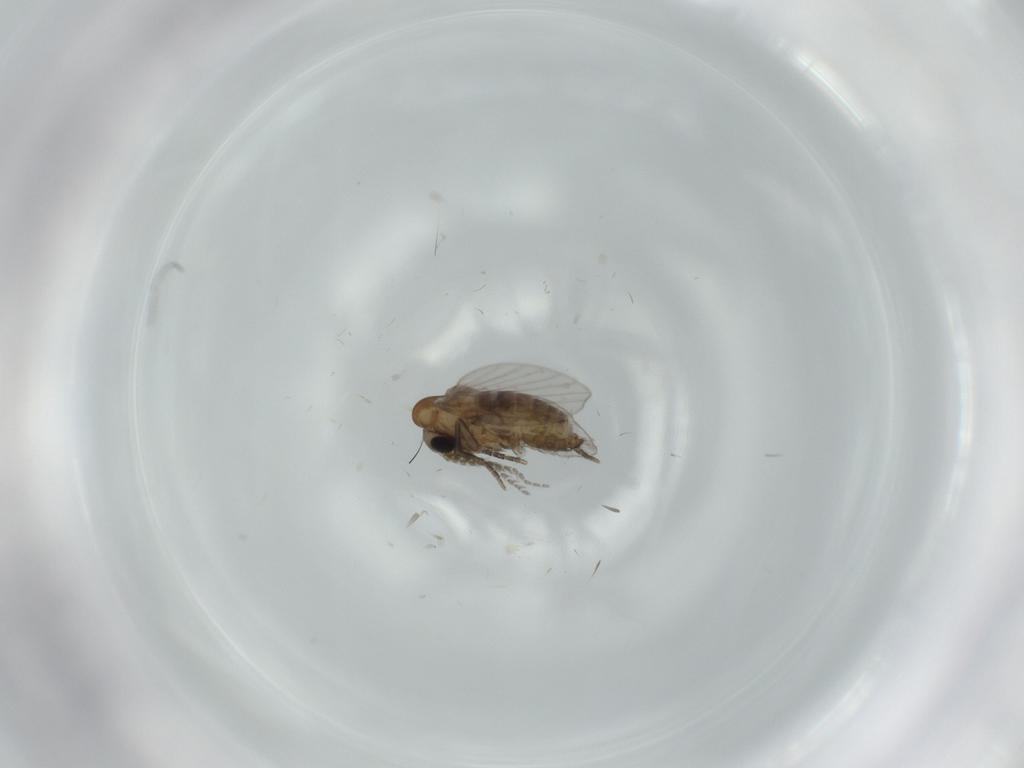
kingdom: Animalia
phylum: Arthropoda
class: Insecta
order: Diptera
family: Psychodidae
